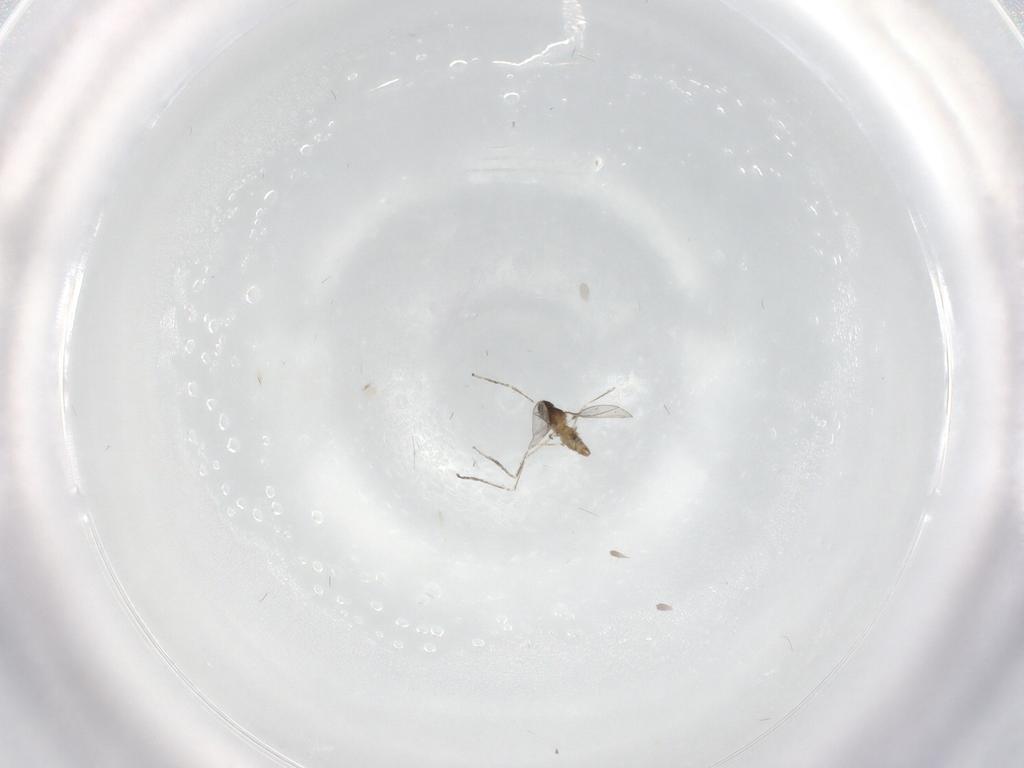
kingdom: Animalia
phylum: Arthropoda
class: Insecta
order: Diptera
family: Cecidomyiidae
